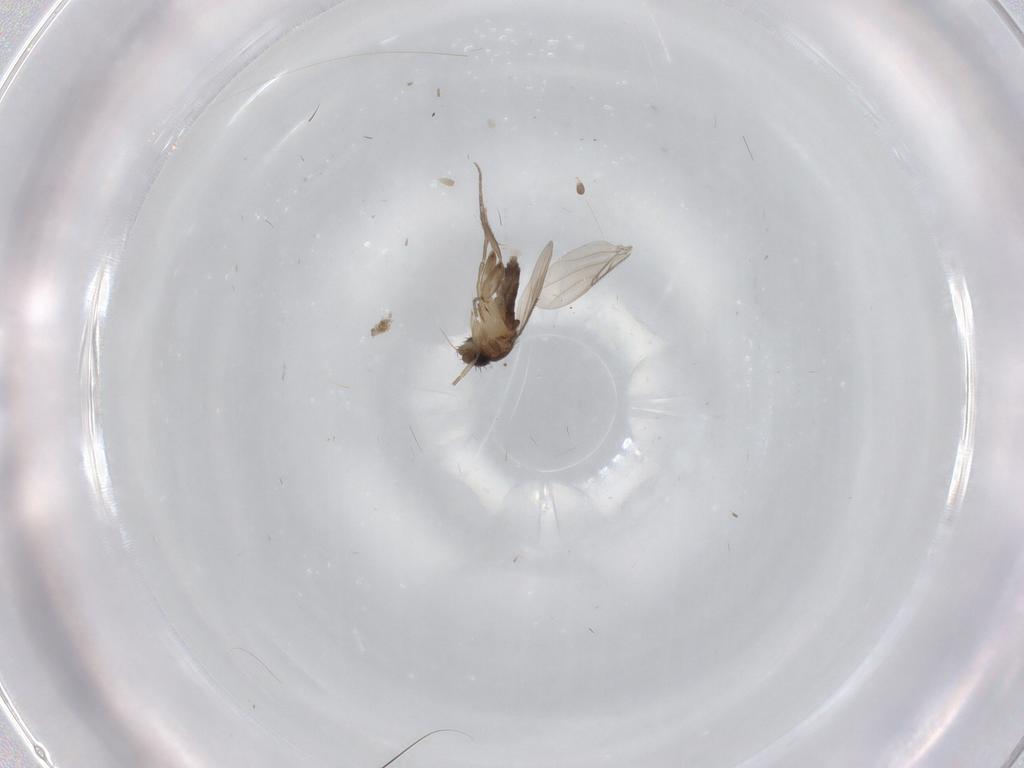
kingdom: Animalia
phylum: Arthropoda
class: Insecta
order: Diptera
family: Phoridae
